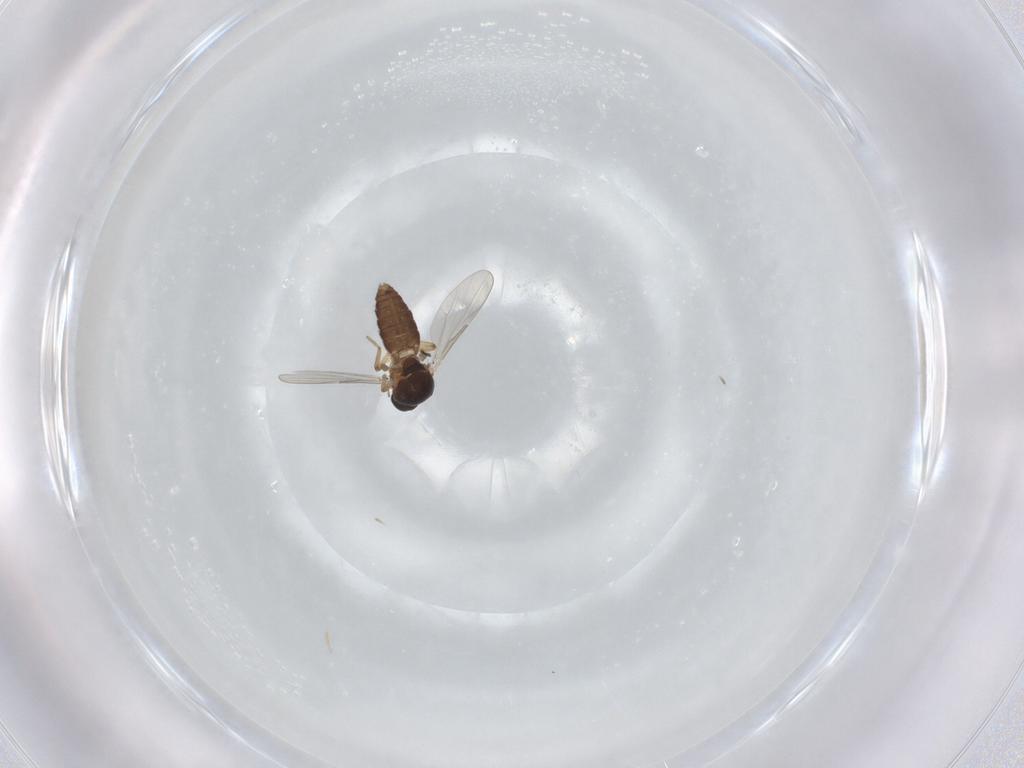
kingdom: Animalia
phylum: Arthropoda
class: Insecta
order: Diptera
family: Ceratopogonidae
